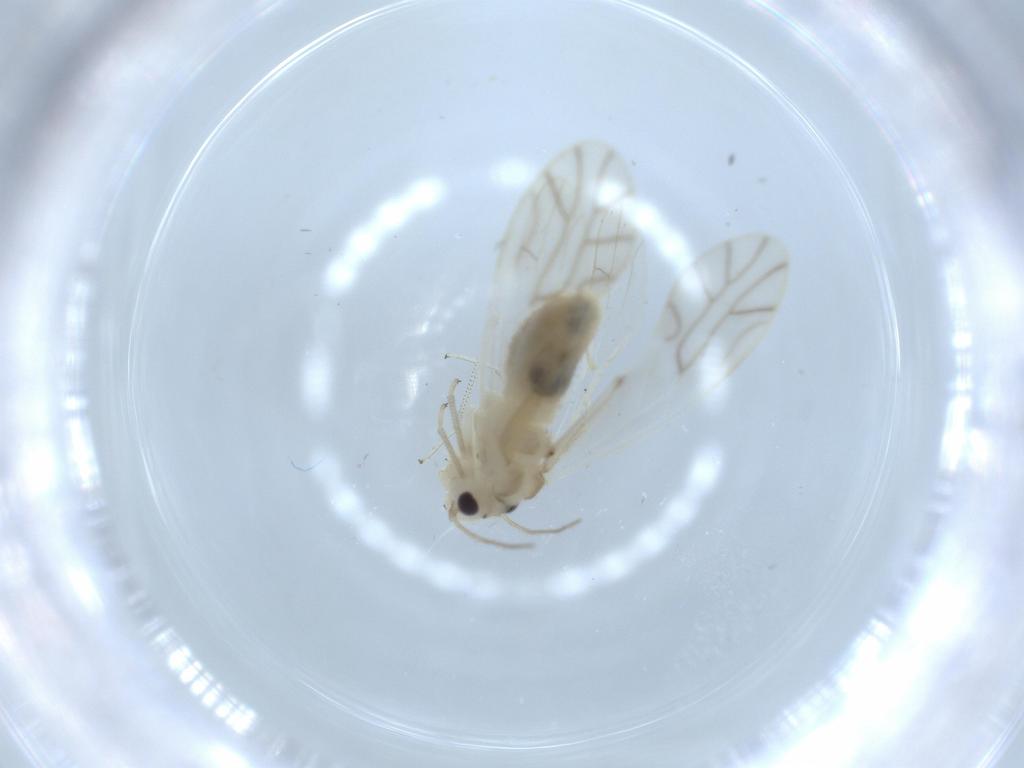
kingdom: Animalia
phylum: Arthropoda
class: Insecta
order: Psocodea
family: Caeciliusidae
